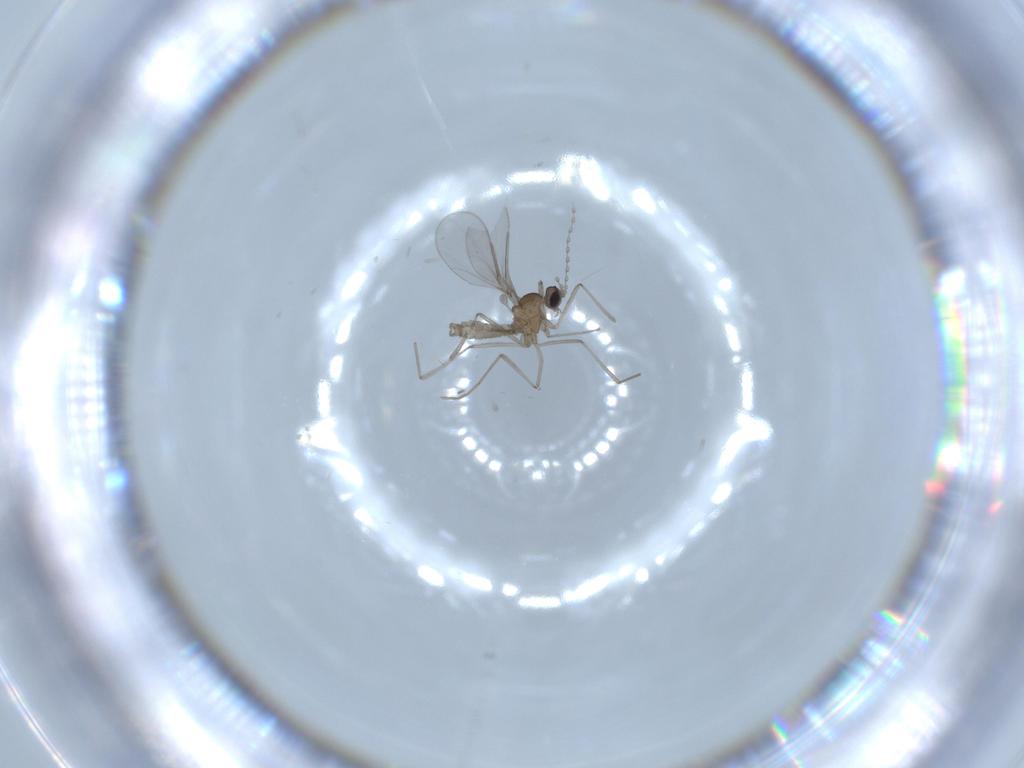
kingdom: Animalia
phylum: Arthropoda
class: Insecta
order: Diptera
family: Cecidomyiidae
